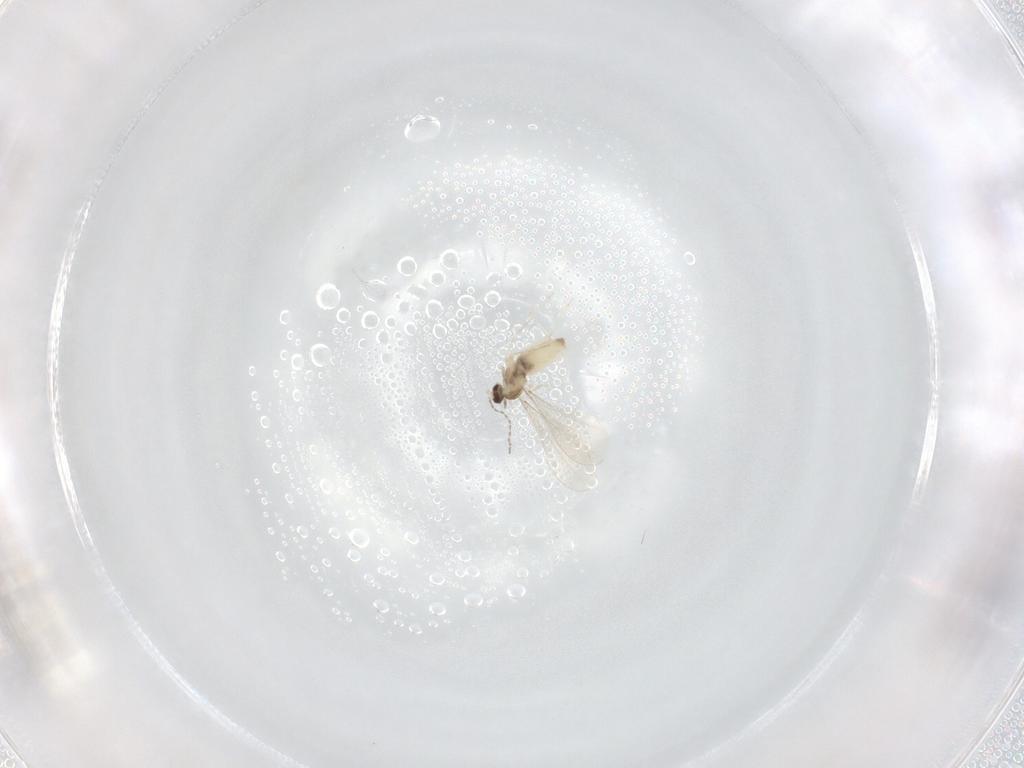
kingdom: Animalia
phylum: Arthropoda
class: Insecta
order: Diptera
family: Cecidomyiidae
